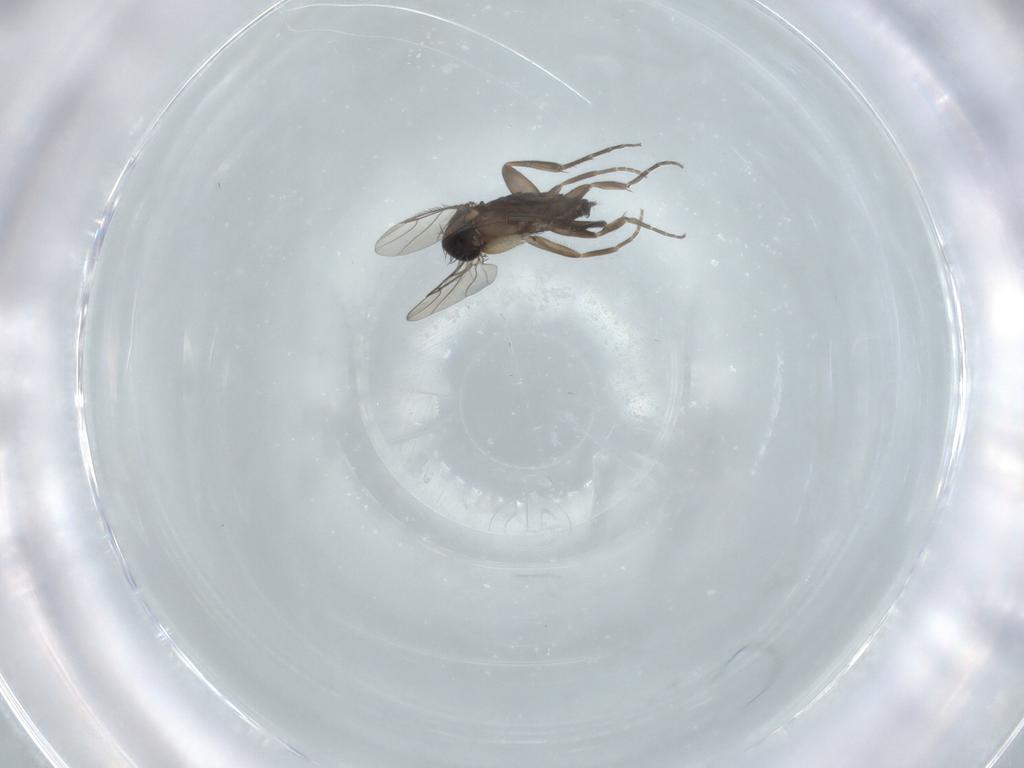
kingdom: Animalia
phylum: Arthropoda
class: Insecta
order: Diptera
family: Phoridae
